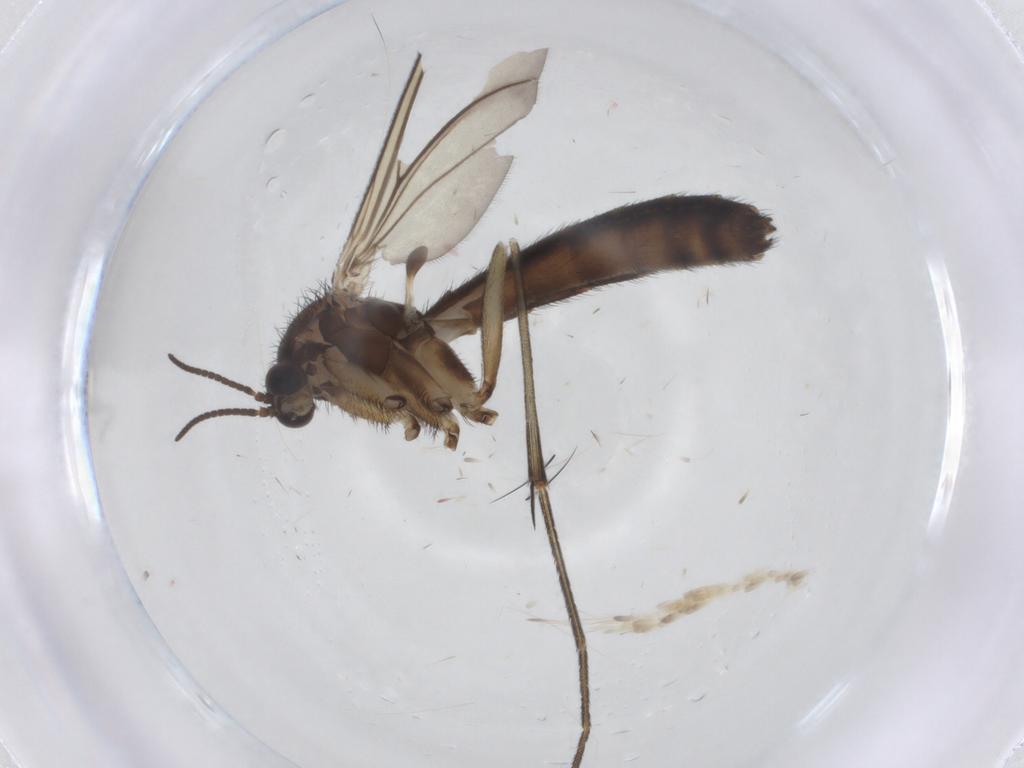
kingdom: Animalia
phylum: Arthropoda
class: Insecta
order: Diptera
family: Keroplatidae
